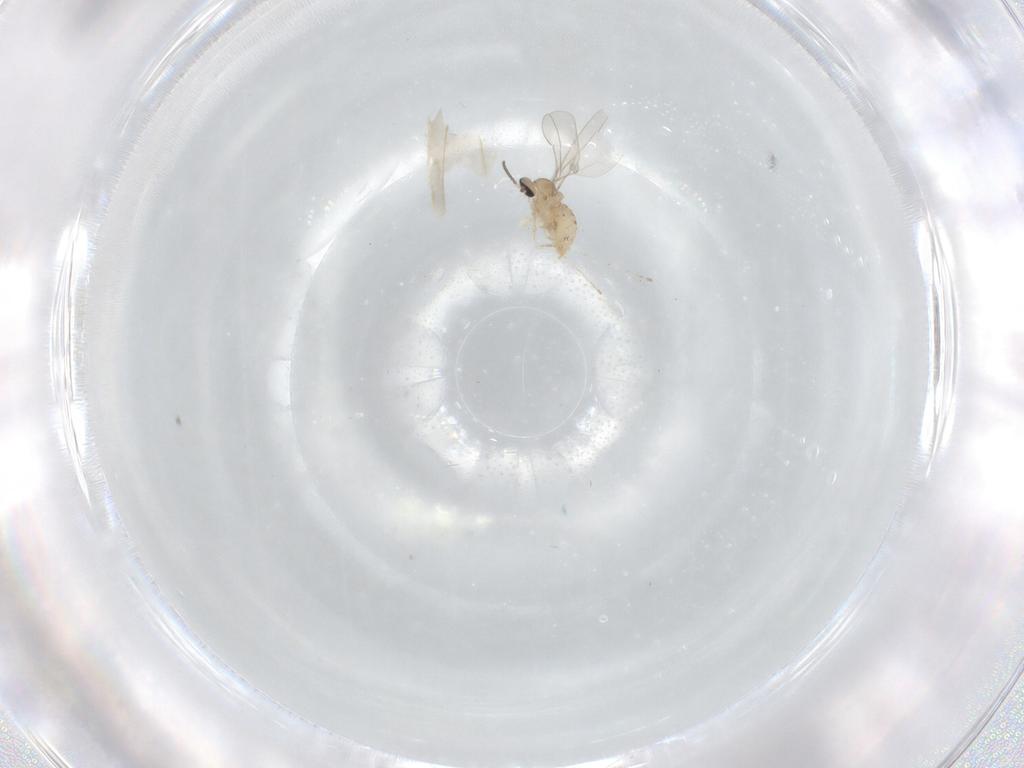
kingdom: Animalia
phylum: Arthropoda
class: Insecta
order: Diptera
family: Cecidomyiidae
